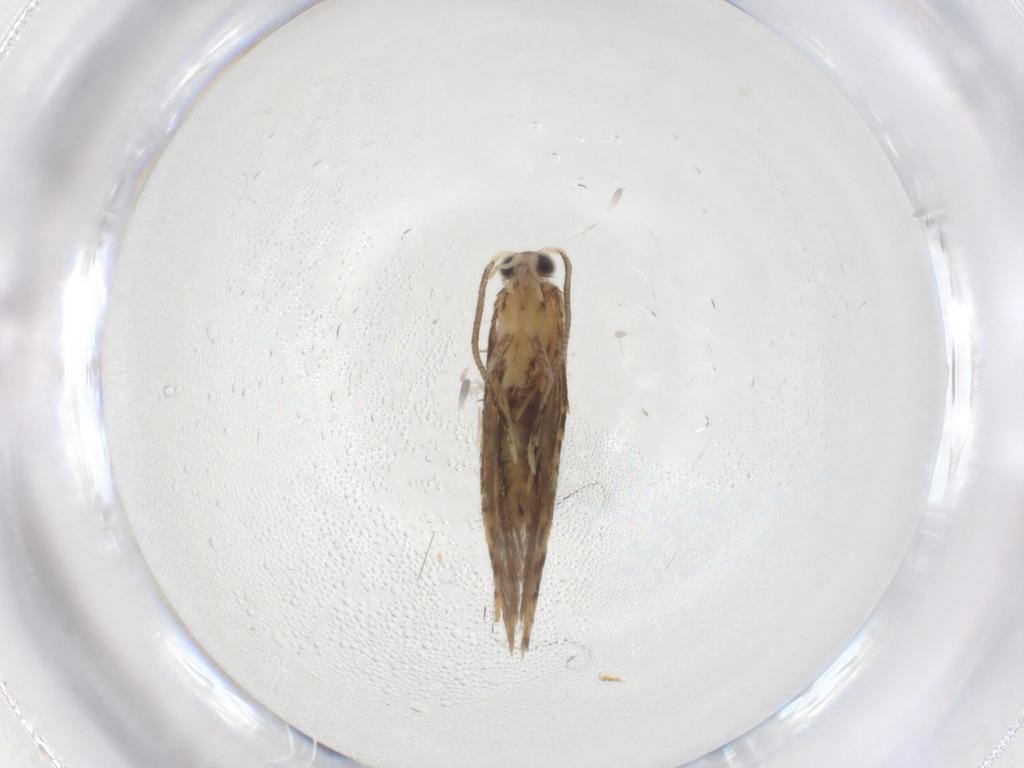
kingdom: Animalia
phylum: Arthropoda
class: Insecta
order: Lepidoptera
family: Tineidae
